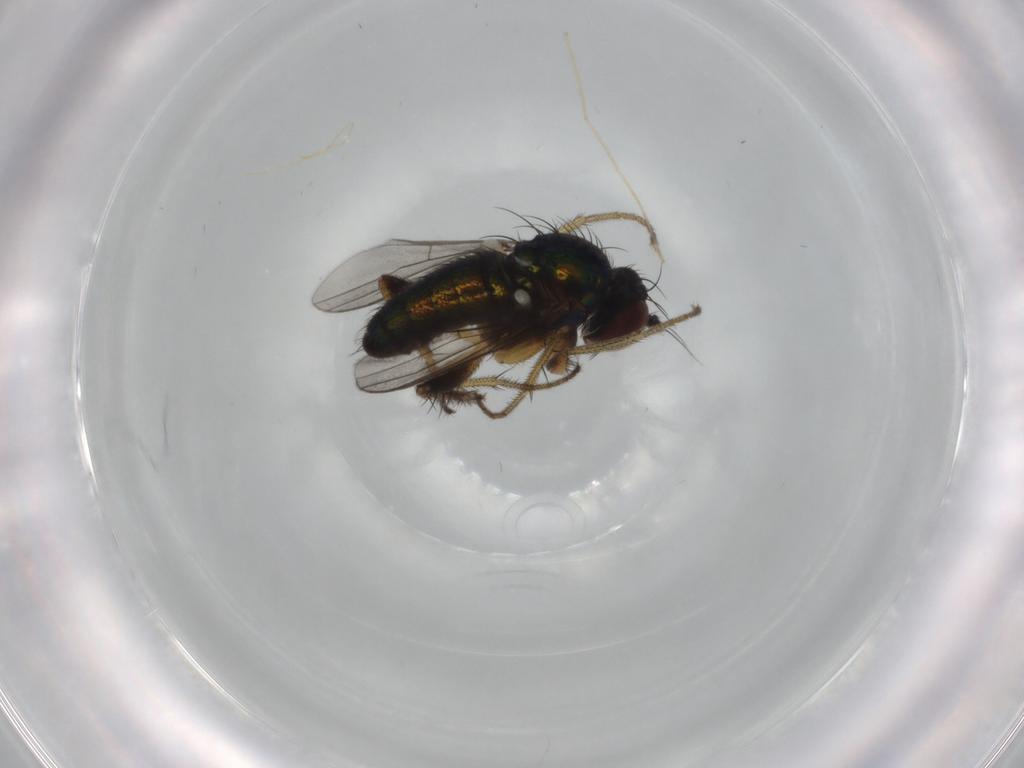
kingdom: Animalia
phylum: Arthropoda
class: Insecta
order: Diptera
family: Dolichopodidae
